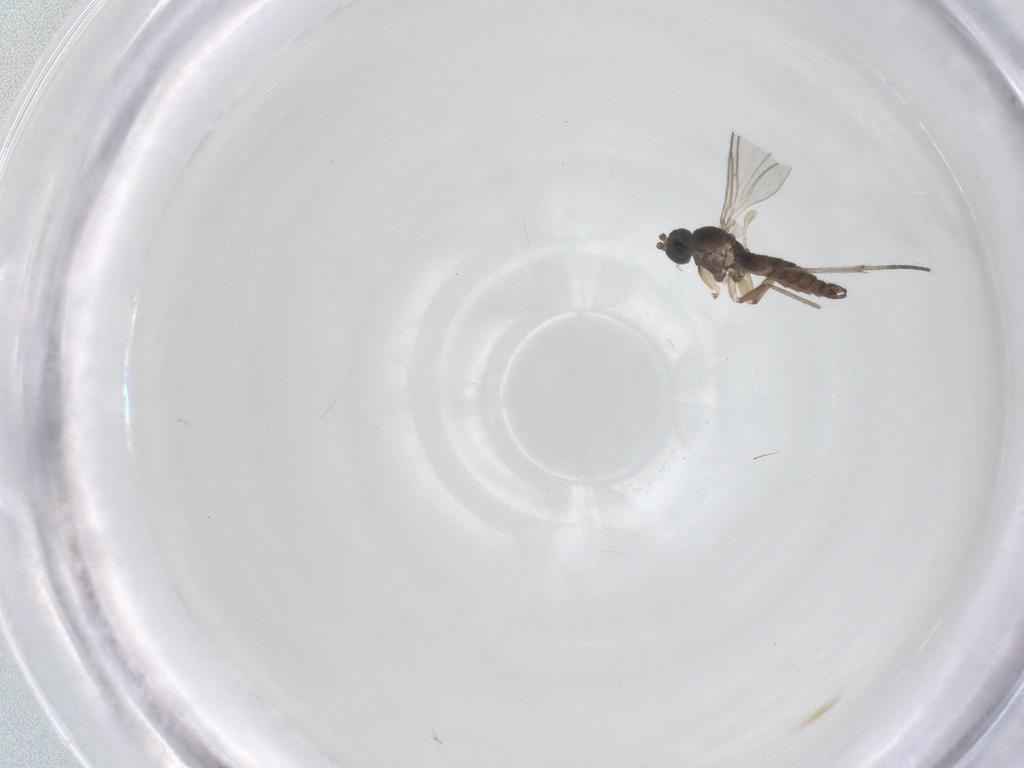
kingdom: Animalia
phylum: Arthropoda
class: Insecta
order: Diptera
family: Sciaridae
